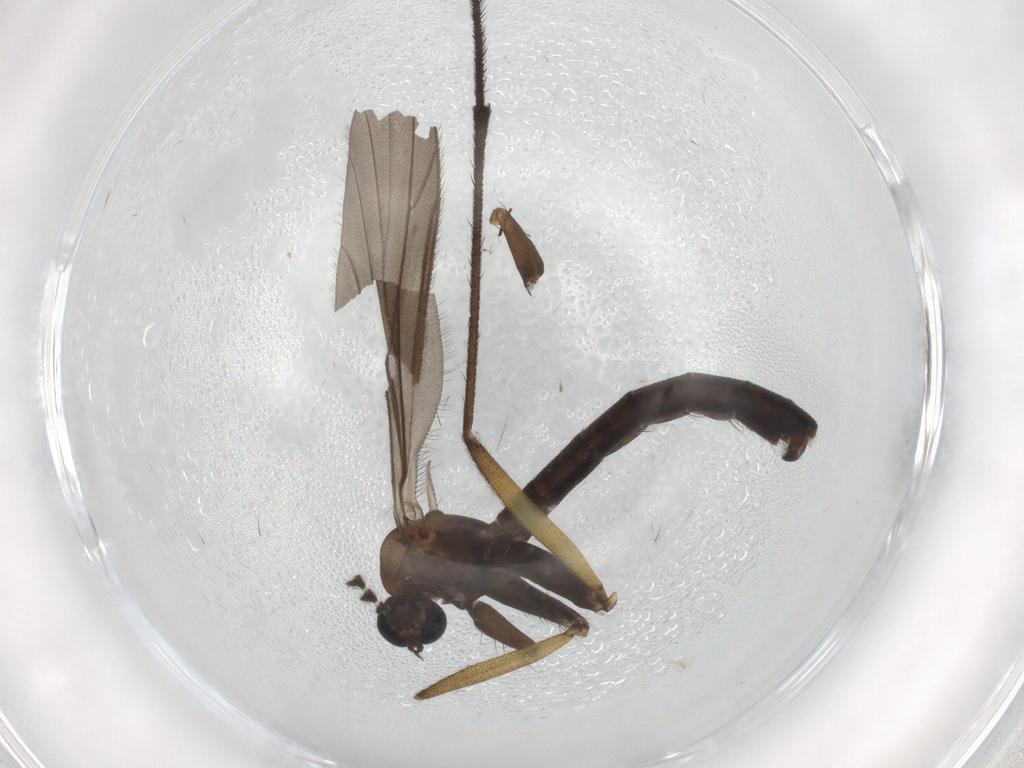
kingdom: Animalia
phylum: Arthropoda
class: Insecta
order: Diptera
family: Ditomyiidae
